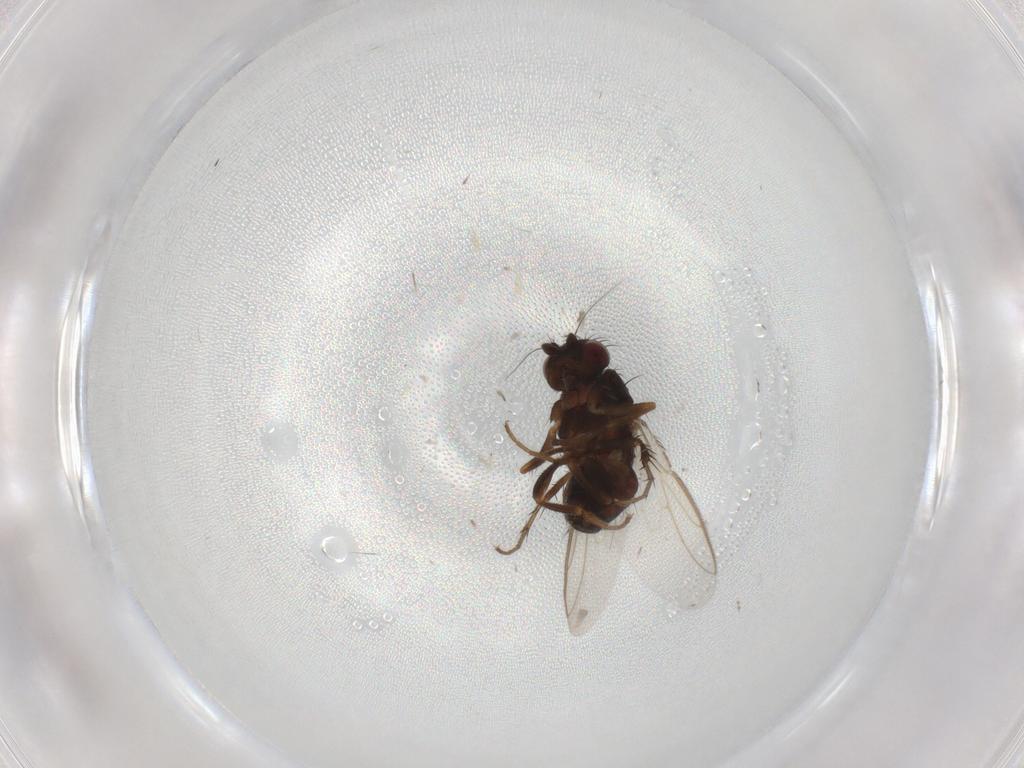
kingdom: Animalia
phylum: Arthropoda
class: Insecta
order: Diptera
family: Sphaeroceridae
